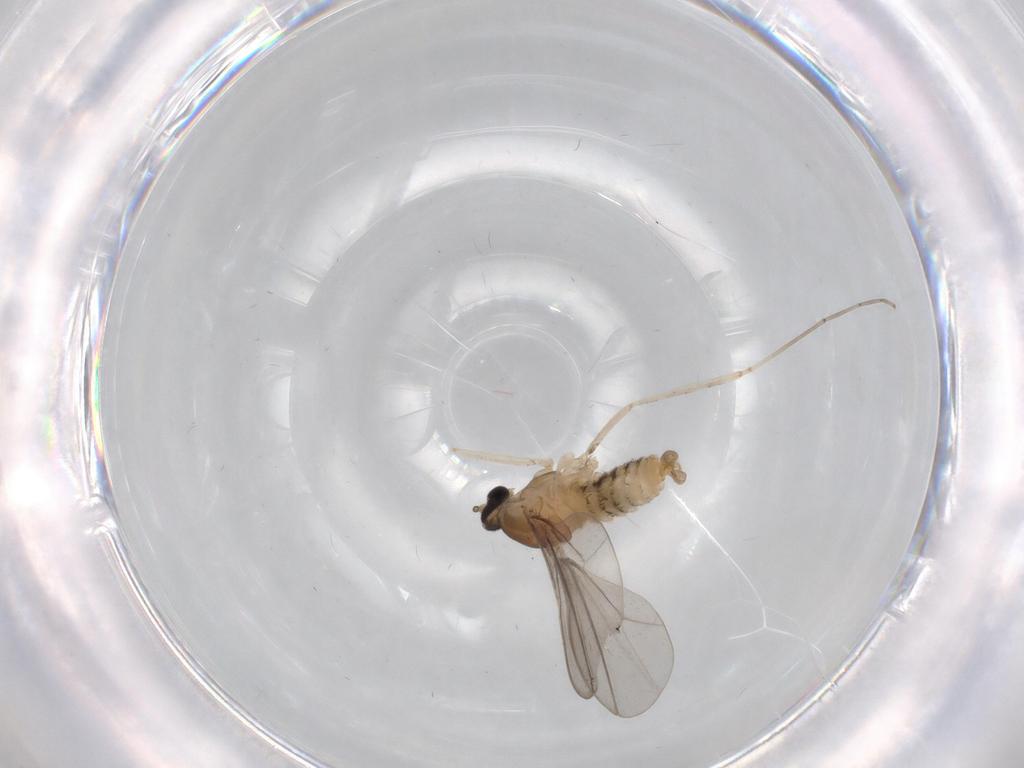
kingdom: Animalia
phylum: Arthropoda
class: Insecta
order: Diptera
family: Cecidomyiidae
